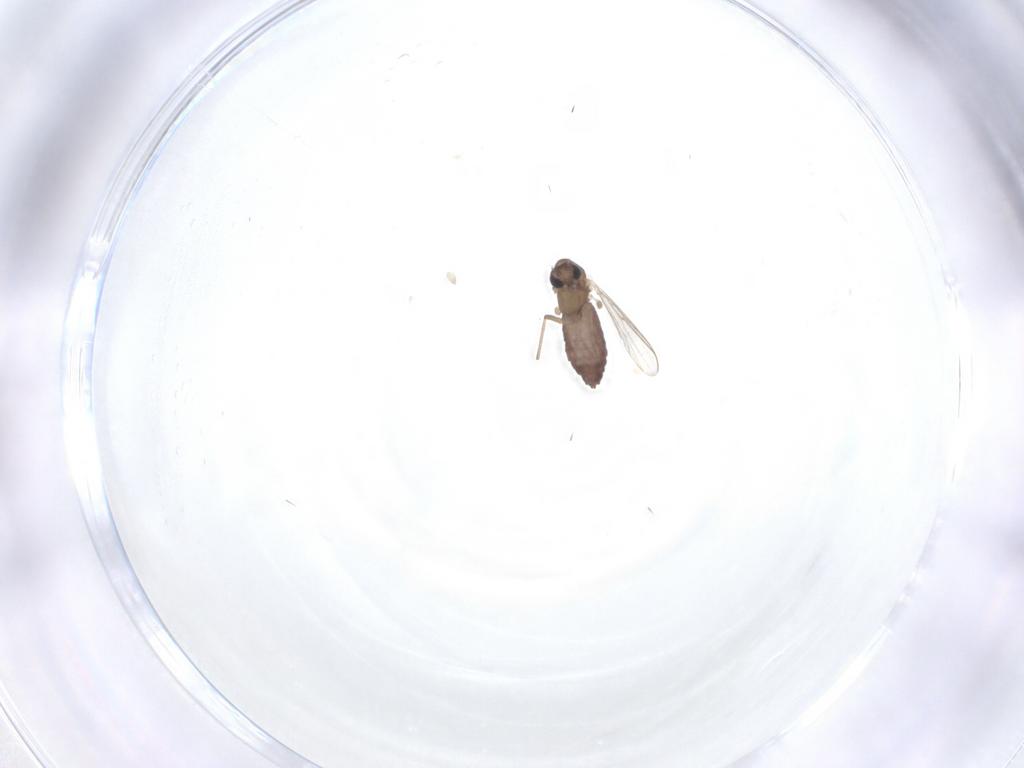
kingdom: Animalia
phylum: Arthropoda
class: Insecta
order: Diptera
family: Chironomidae
